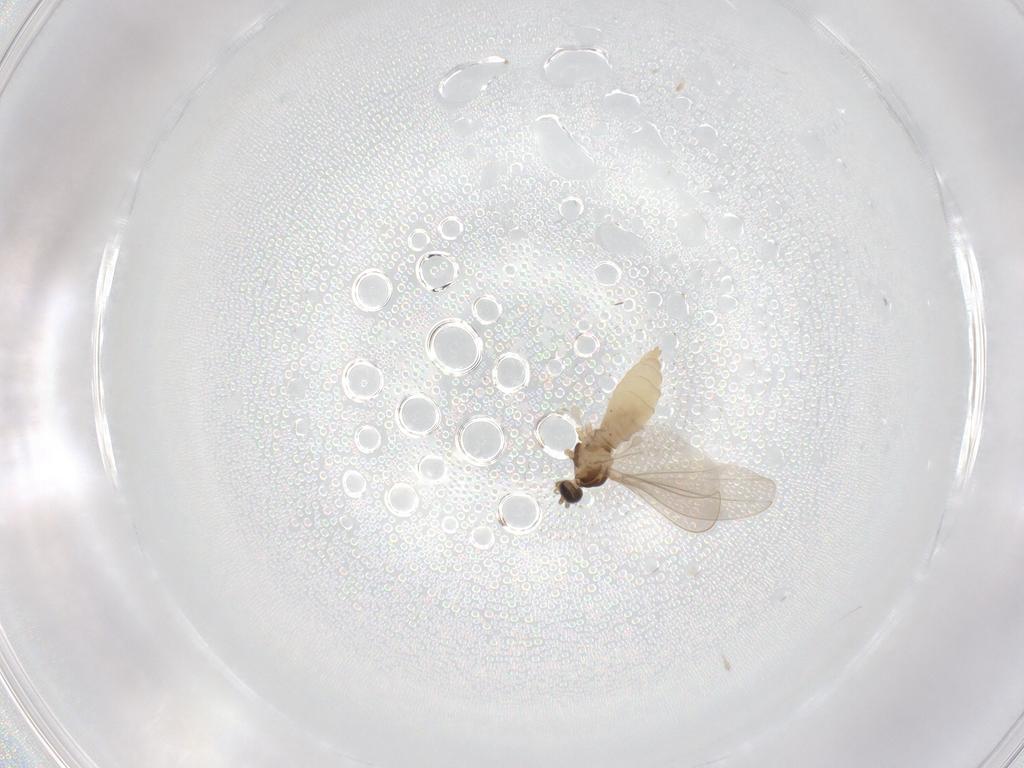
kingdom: Animalia
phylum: Arthropoda
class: Insecta
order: Diptera
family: Cecidomyiidae
